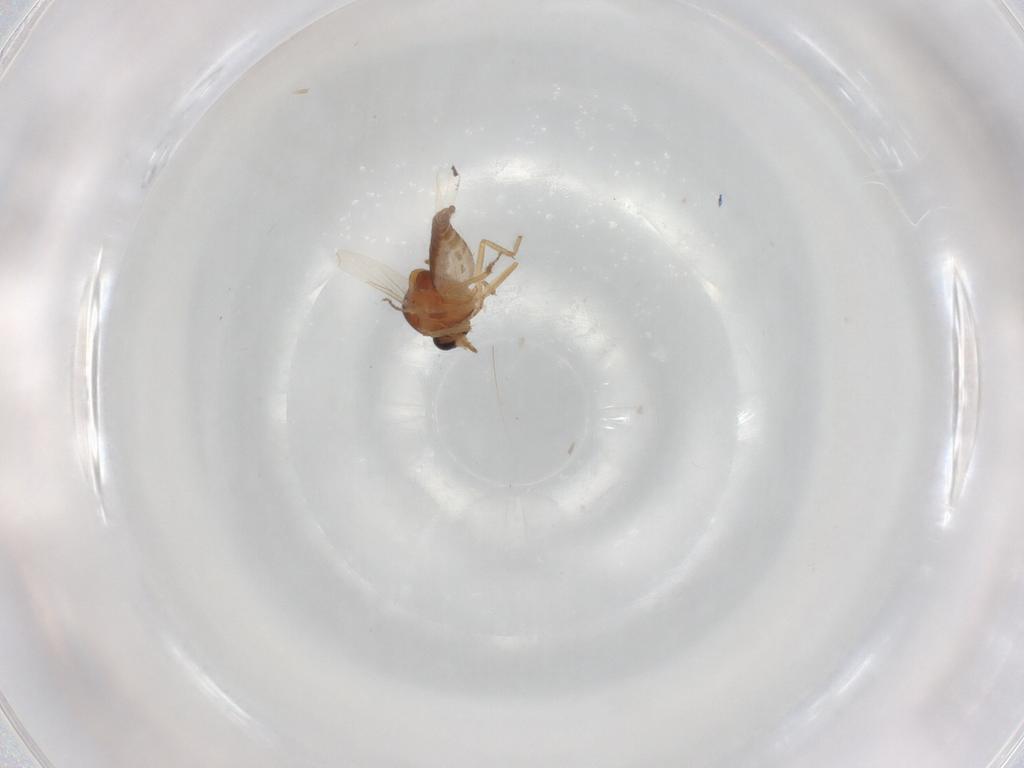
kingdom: Animalia
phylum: Arthropoda
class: Insecta
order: Diptera
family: Ceratopogonidae
